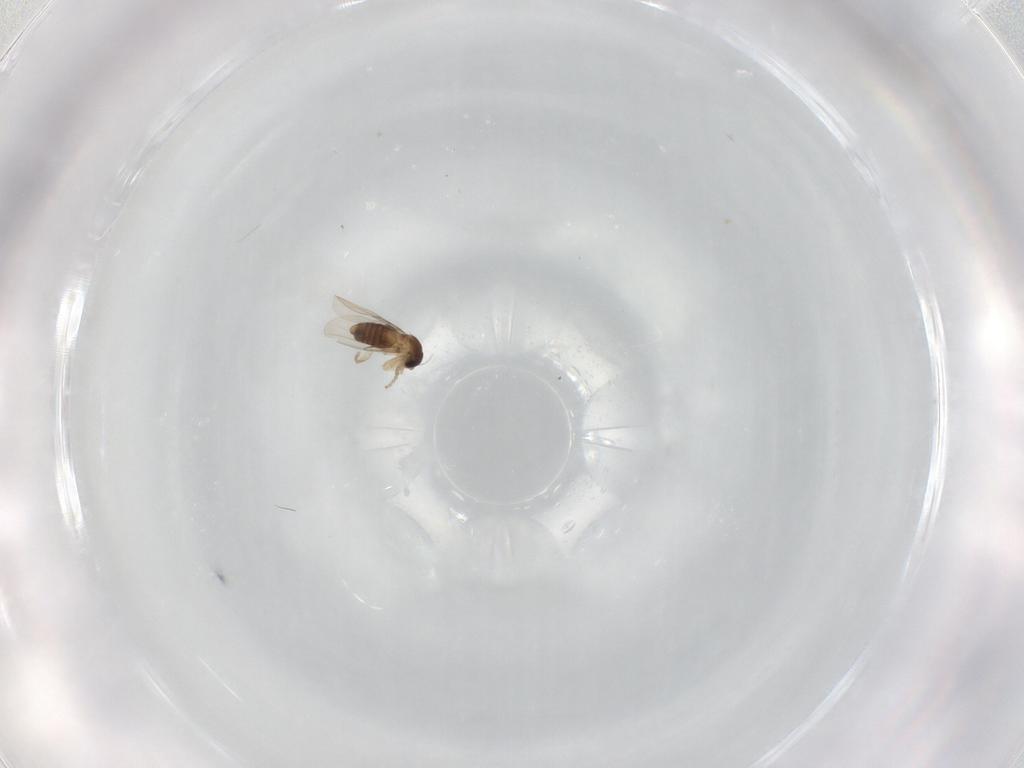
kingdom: Animalia
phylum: Arthropoda
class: Insecta
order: Diptera
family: Phoridae
